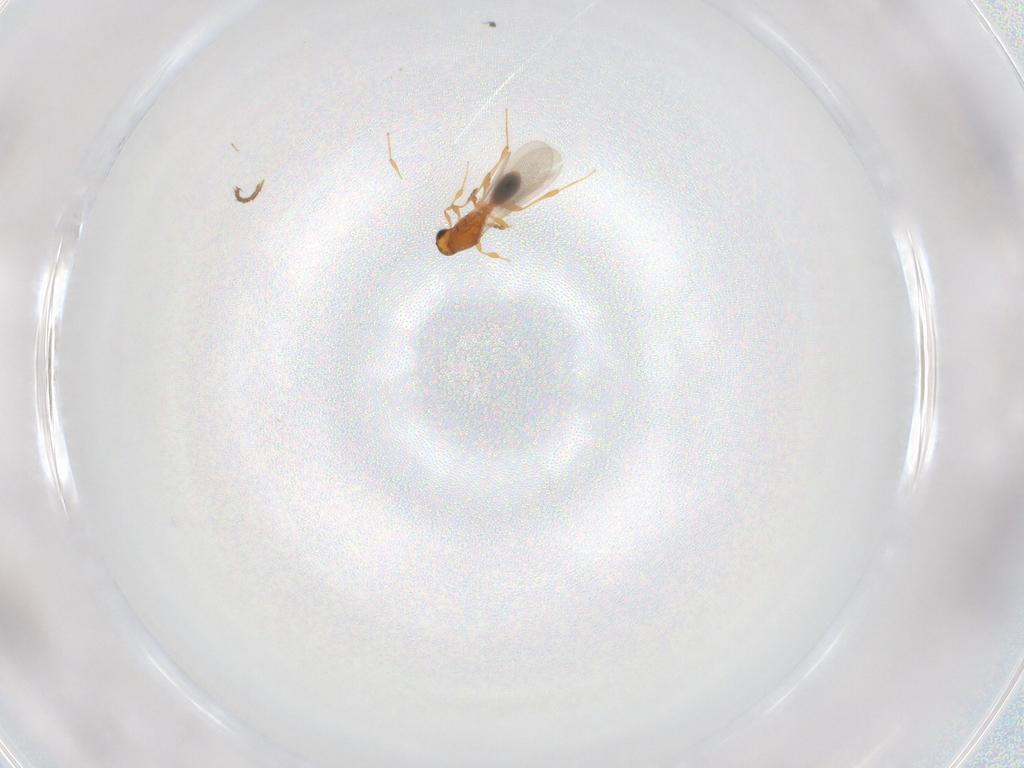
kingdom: Animalia
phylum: Arthropoda
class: Insecta
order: Hymenoptera
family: Platygastridae
